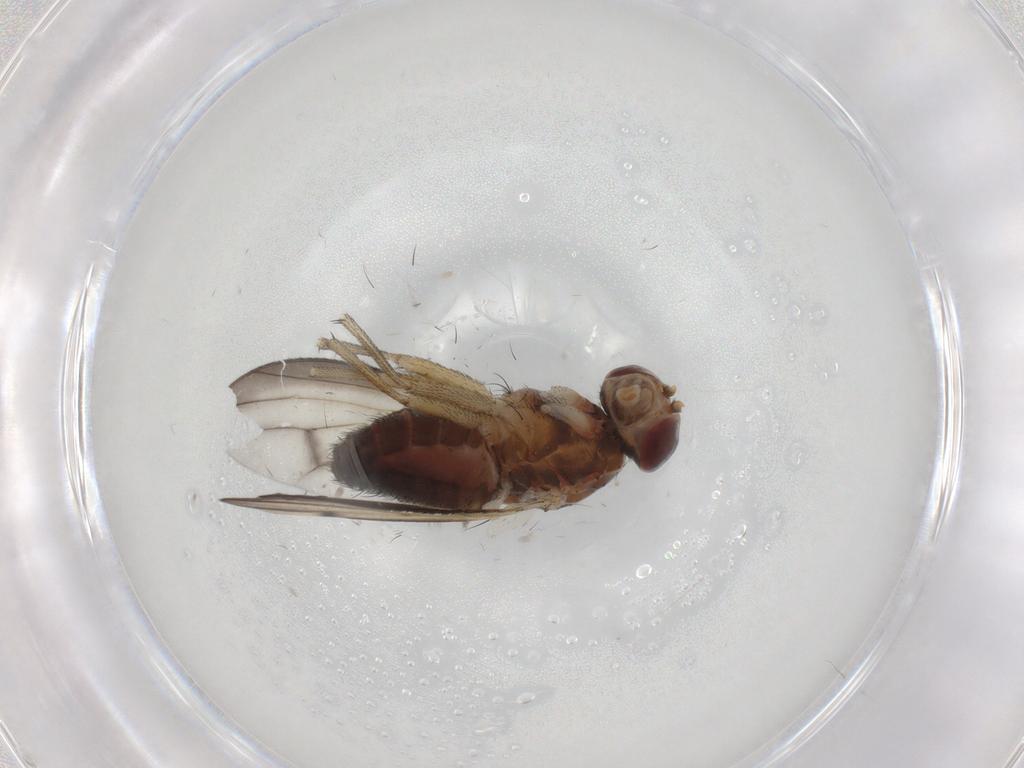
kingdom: Animalia
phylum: Arthropoda
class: Insecta
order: Diptera
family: Heleomyzidae
